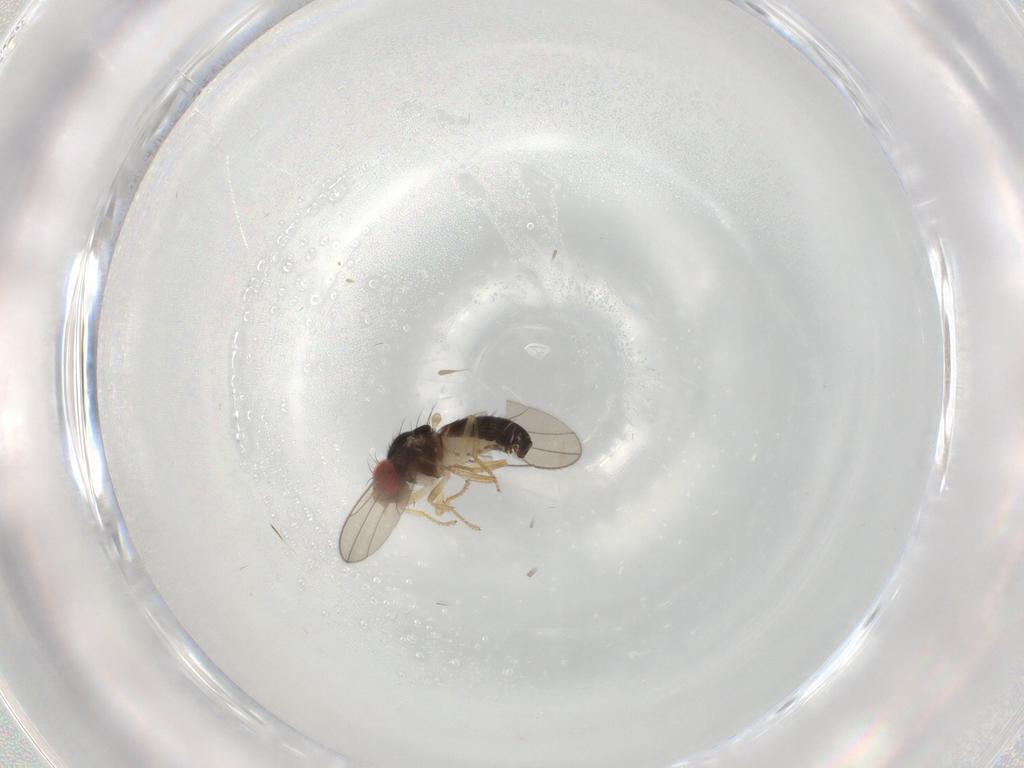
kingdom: Animalia
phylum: Arthropoda
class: Insecta
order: Diptera
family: Drosophilidae
